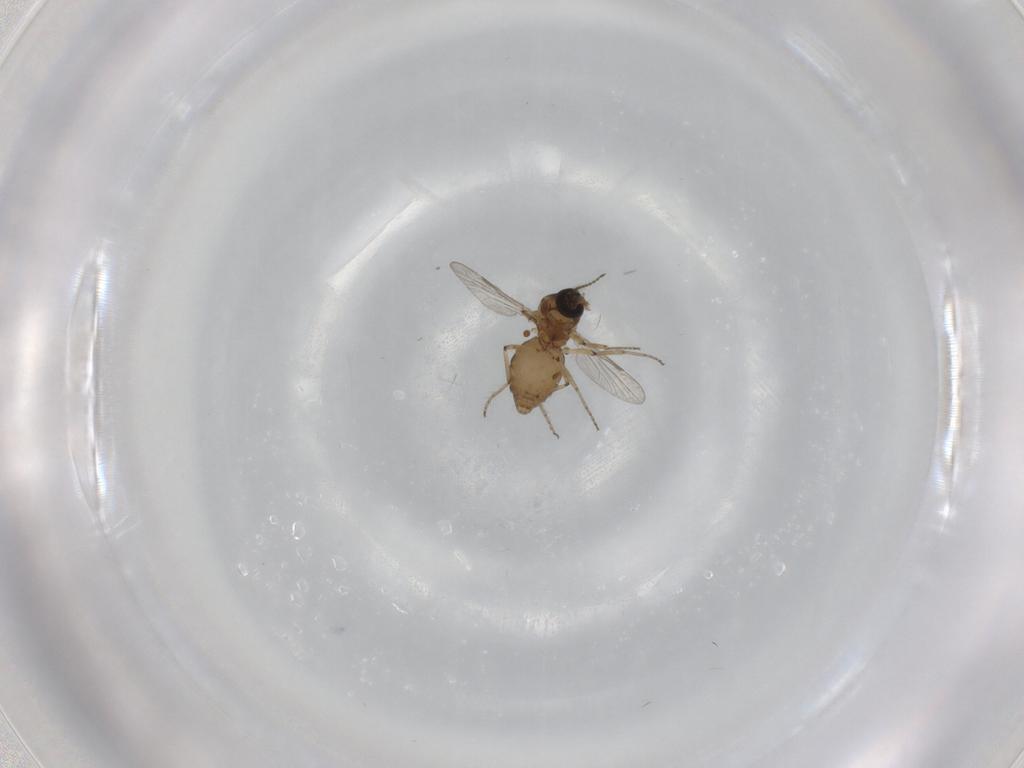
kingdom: Animalia
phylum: Arthropoda
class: Insecta
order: Diptera
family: Ceratopogonidae
